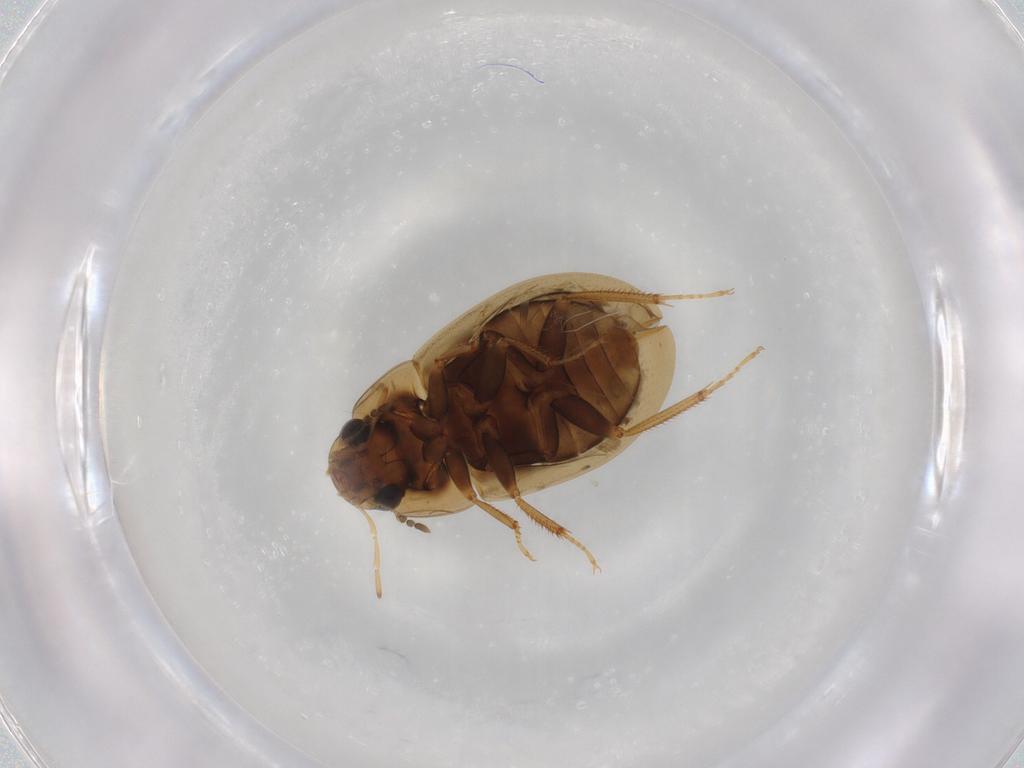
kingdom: Animalia
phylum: Arthropoda
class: Insecta
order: Coleoptera
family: Hydrophilidae
